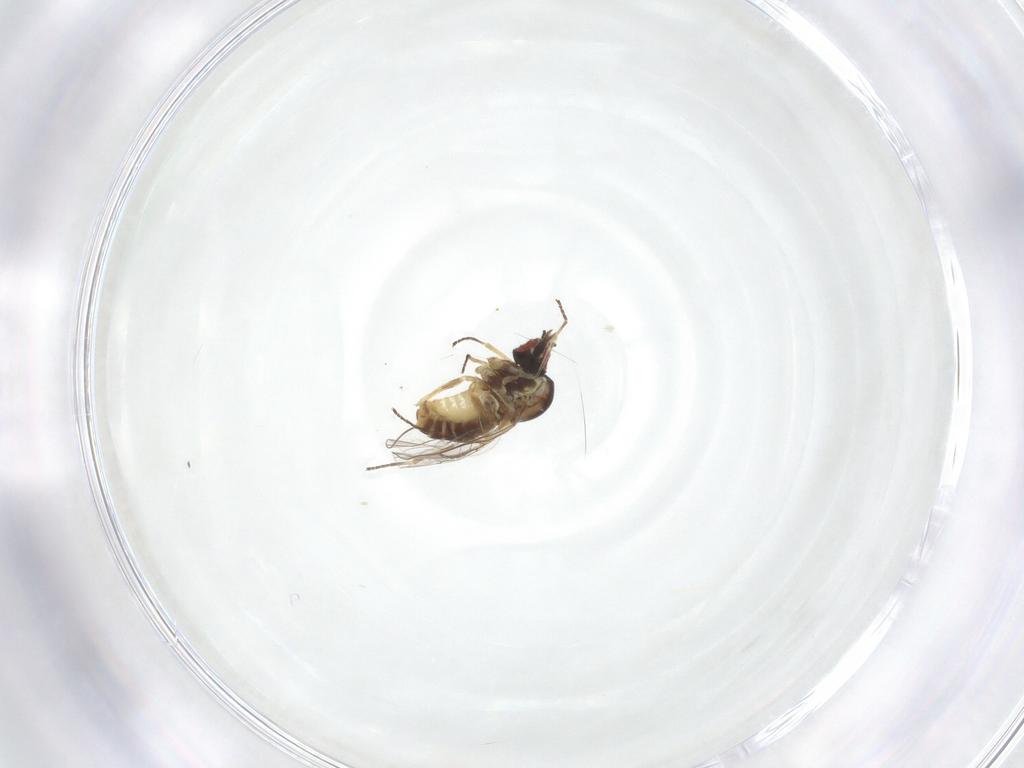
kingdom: Animalia
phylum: Arthropoda
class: Insecta
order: Diptera
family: Bombyliidae
